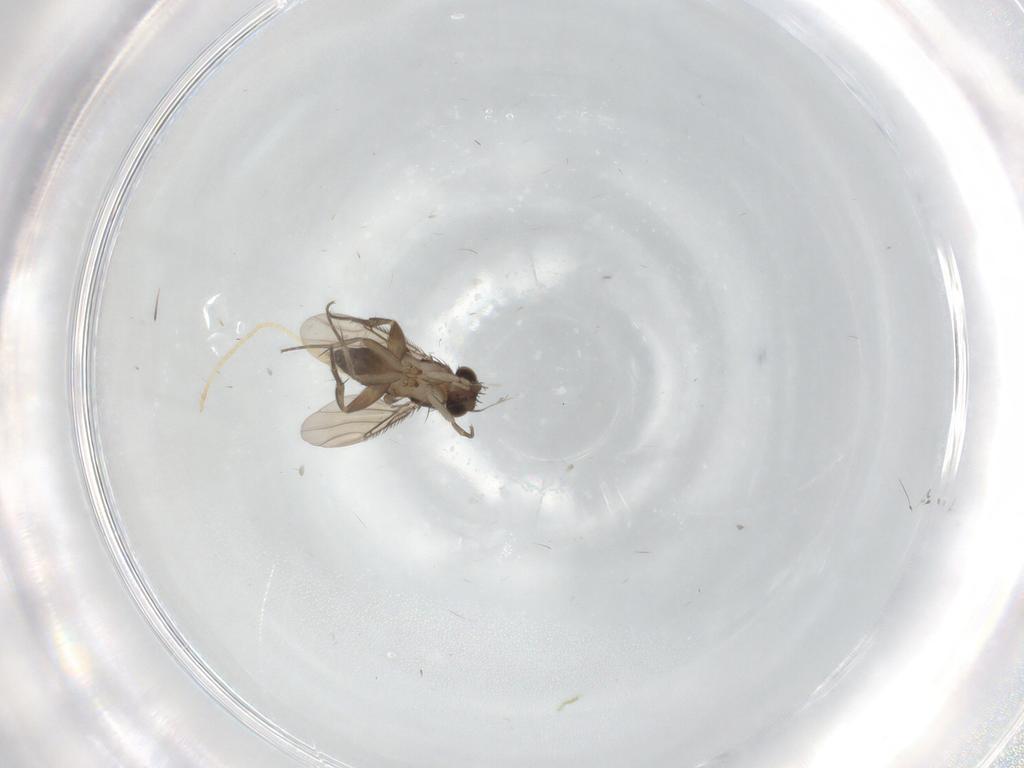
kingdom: Animalia
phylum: Arthropoda
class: Insecta
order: Diptera
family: Phoridae
